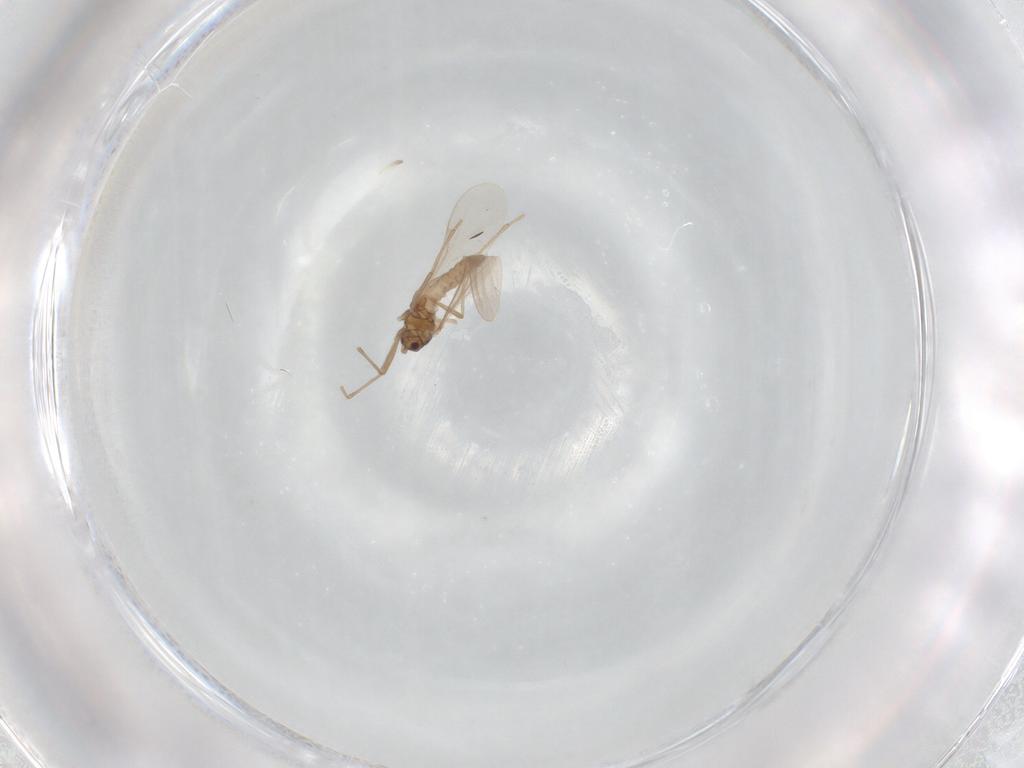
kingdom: Animalia
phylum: Arthropoda
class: Insecta
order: Diptera
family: Cecidomyiidae
